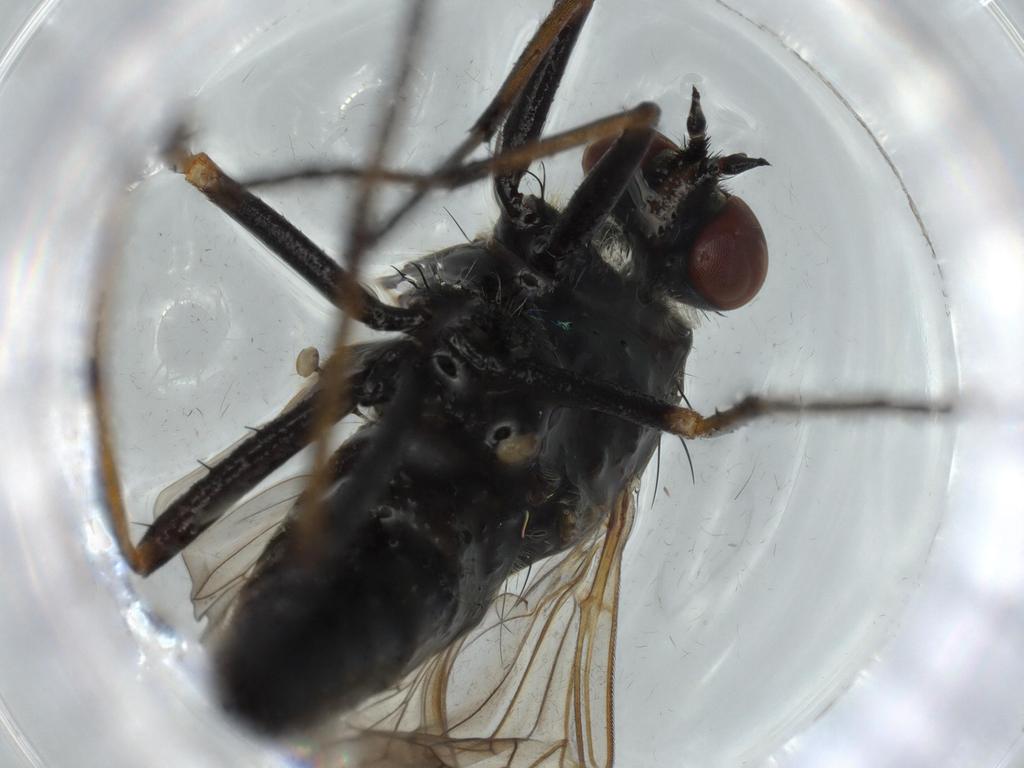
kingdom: Animalia
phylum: Arthropoda
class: Insecta
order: Diptera
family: Therevidae
